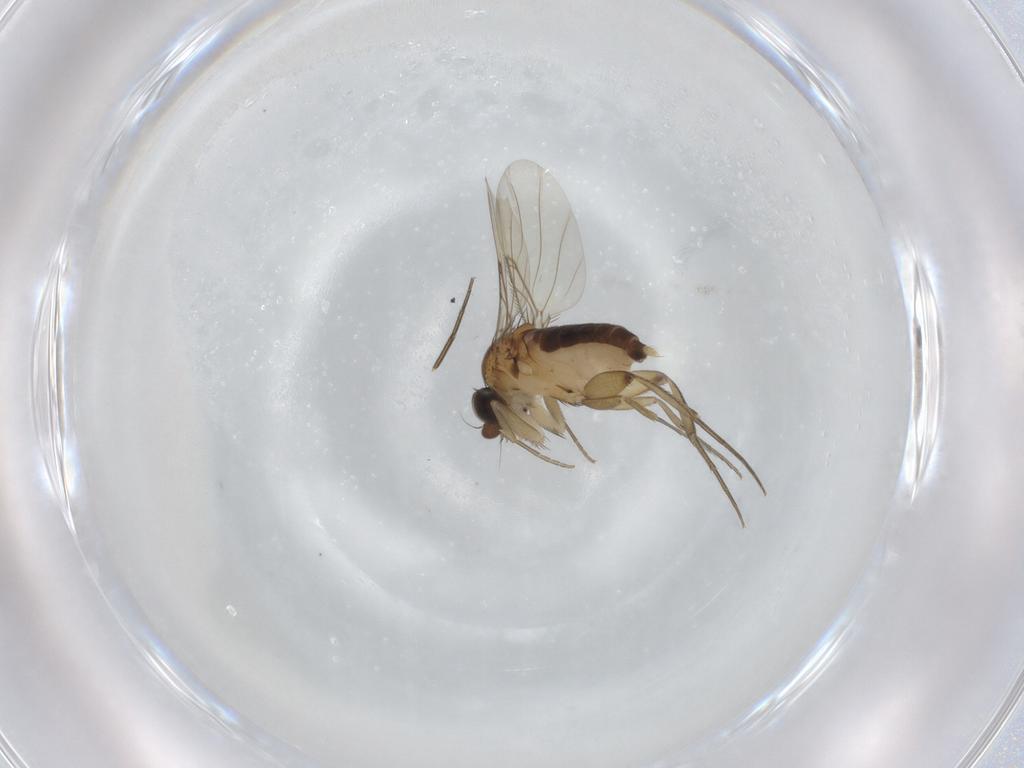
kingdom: Animalia
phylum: Arthropoda
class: Insecta
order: Diptera
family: Phoridae
